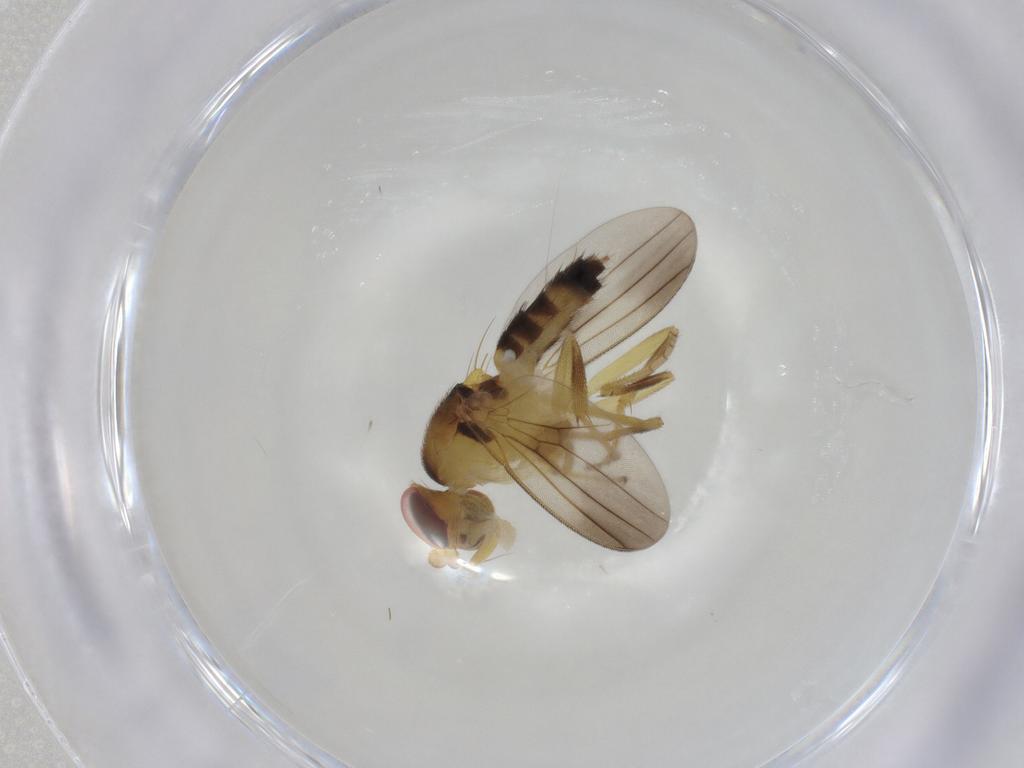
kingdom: Animalia
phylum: Arthropoda
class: Insecta
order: Diptera
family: Clusiidae
